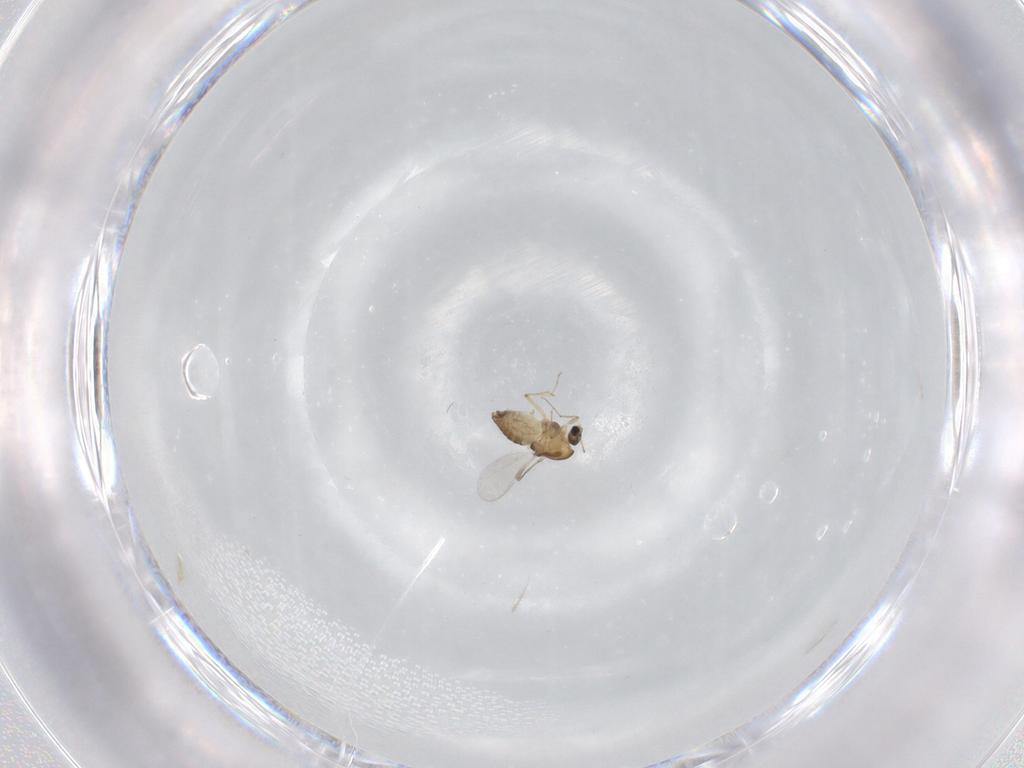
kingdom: Animalia
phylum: Arthropoda
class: Insecta
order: Diptera
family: Chironomidae
